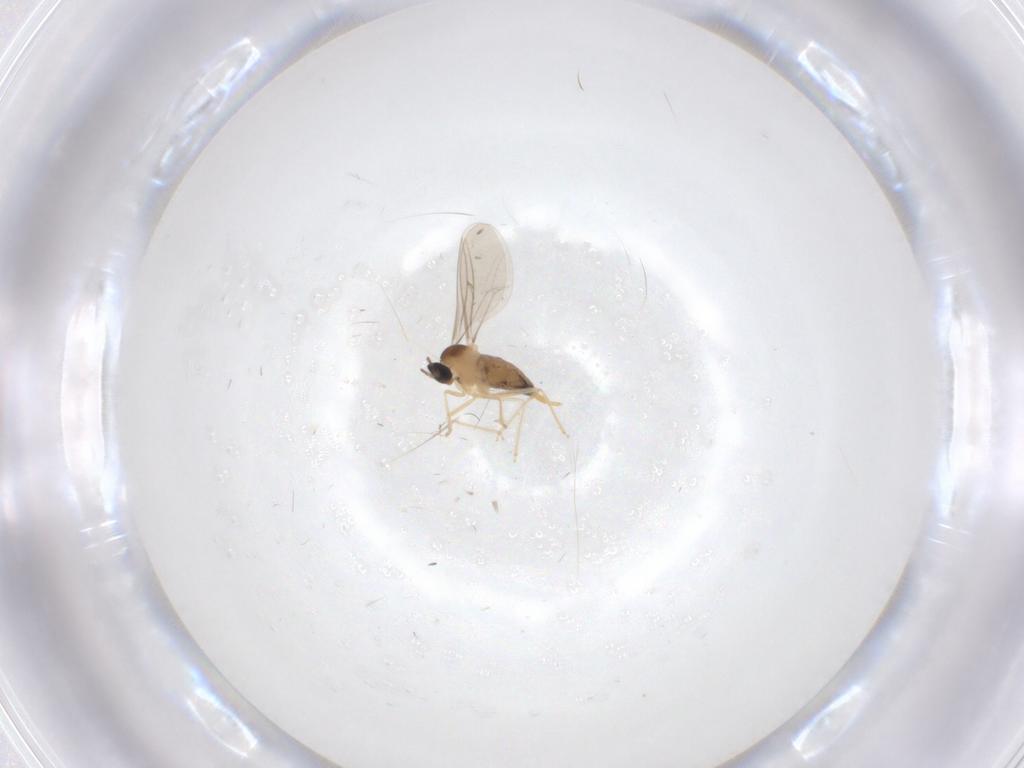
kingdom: Animalia
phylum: Arthropoda
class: Insecta
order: Diptera
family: Cecidomyiidae
